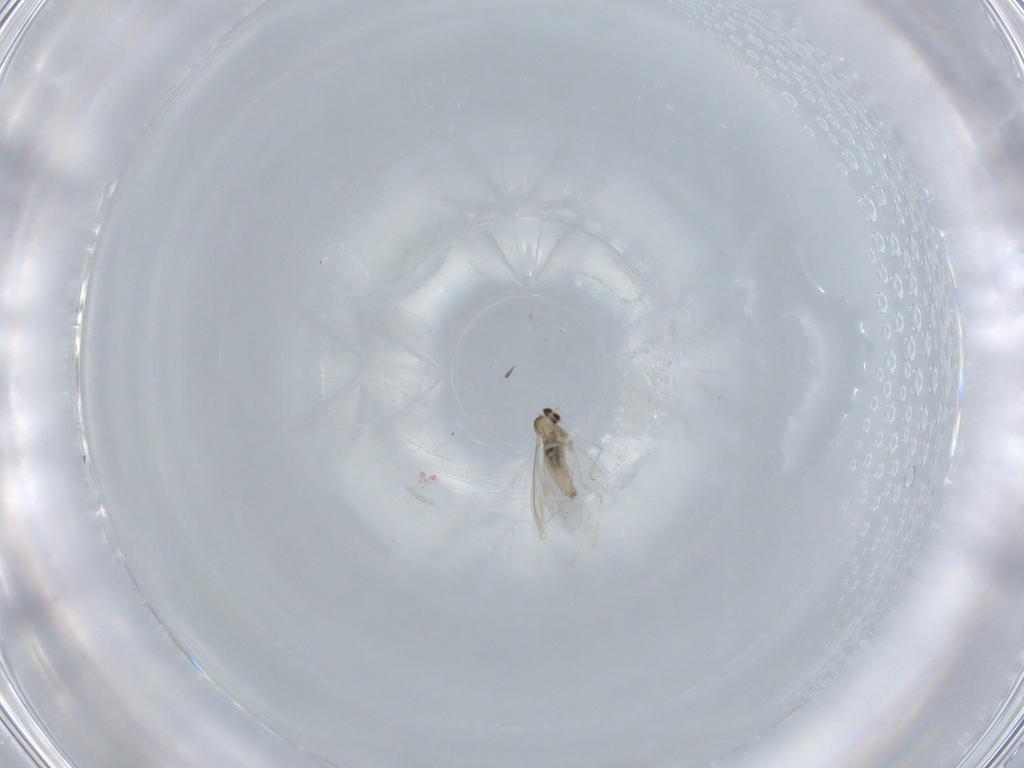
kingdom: Animalia
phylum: Arthropoda
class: Insecta
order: Diptera
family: Cecidomyiidae
